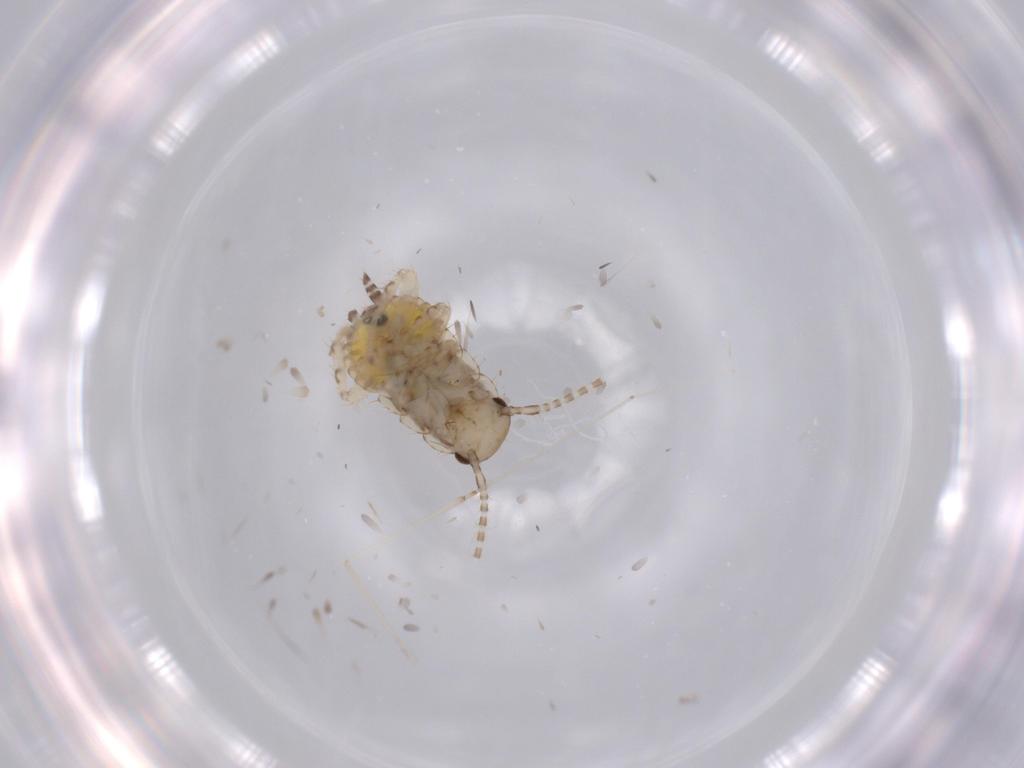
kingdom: Animalia
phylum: Arthropoda
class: Insecta
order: Blattodea
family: Ectobiidae
